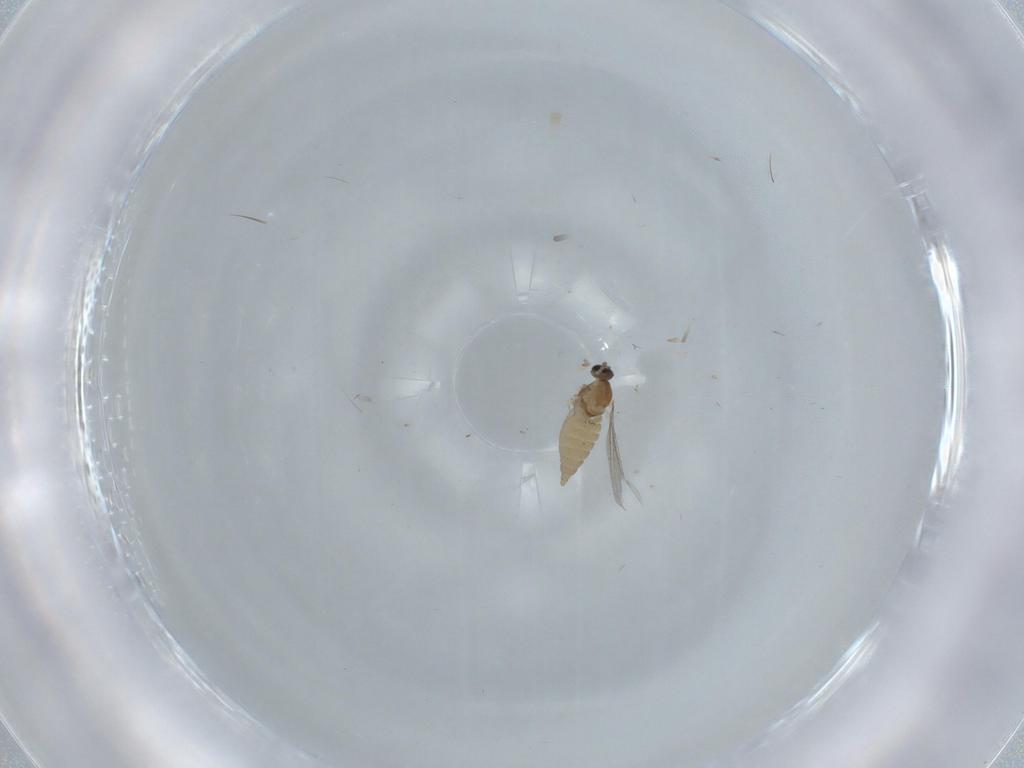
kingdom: Animalia
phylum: Arthropoda
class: Insecta
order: Diptera
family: Cecidomyiidae
